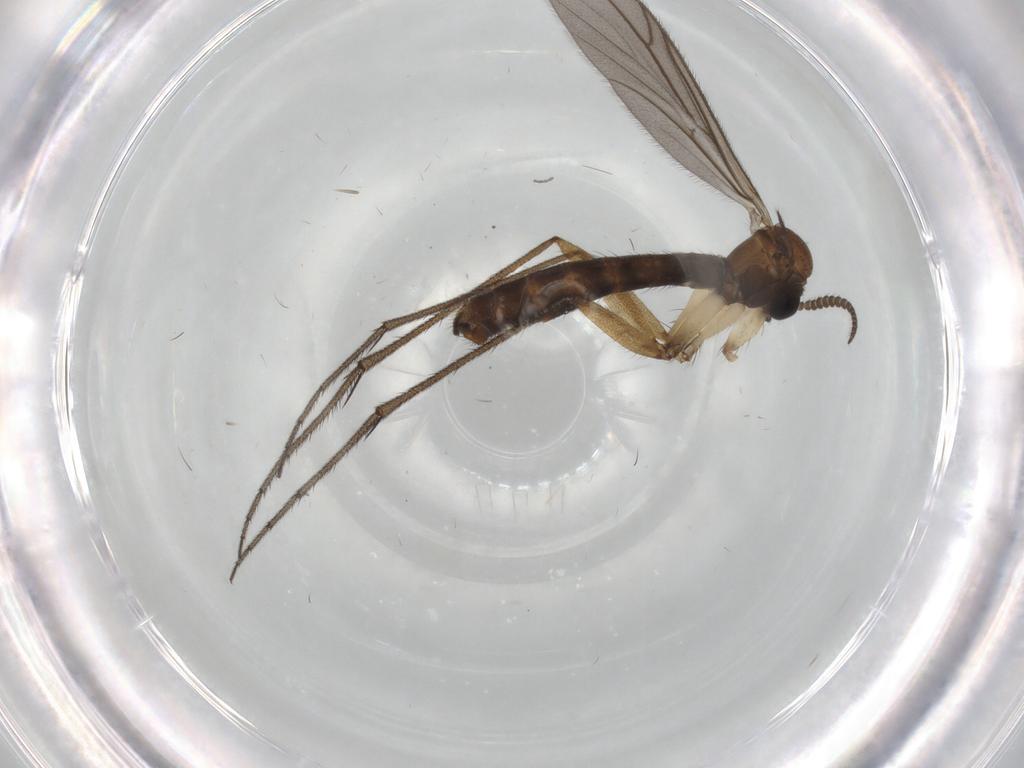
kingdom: Animalia
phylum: Arthropoda
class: Insecta
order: Diptera
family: Ditomyiidae
